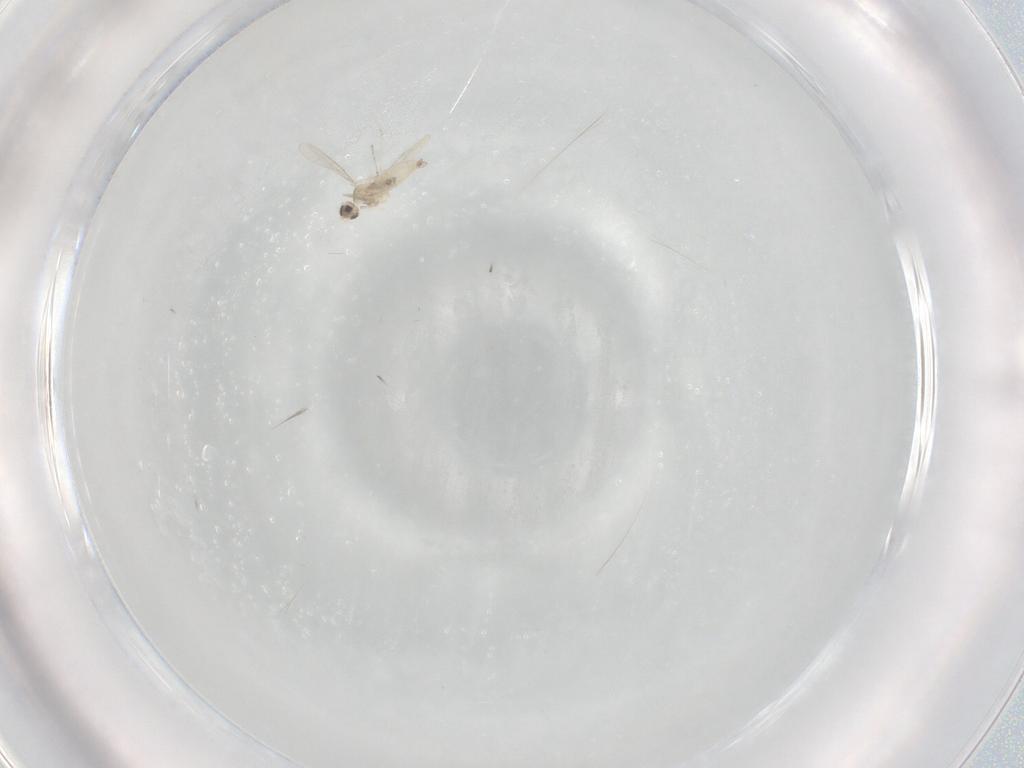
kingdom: Animalia
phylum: Arthropoda
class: Insecta
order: Diptera
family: Cecidomyiidae
